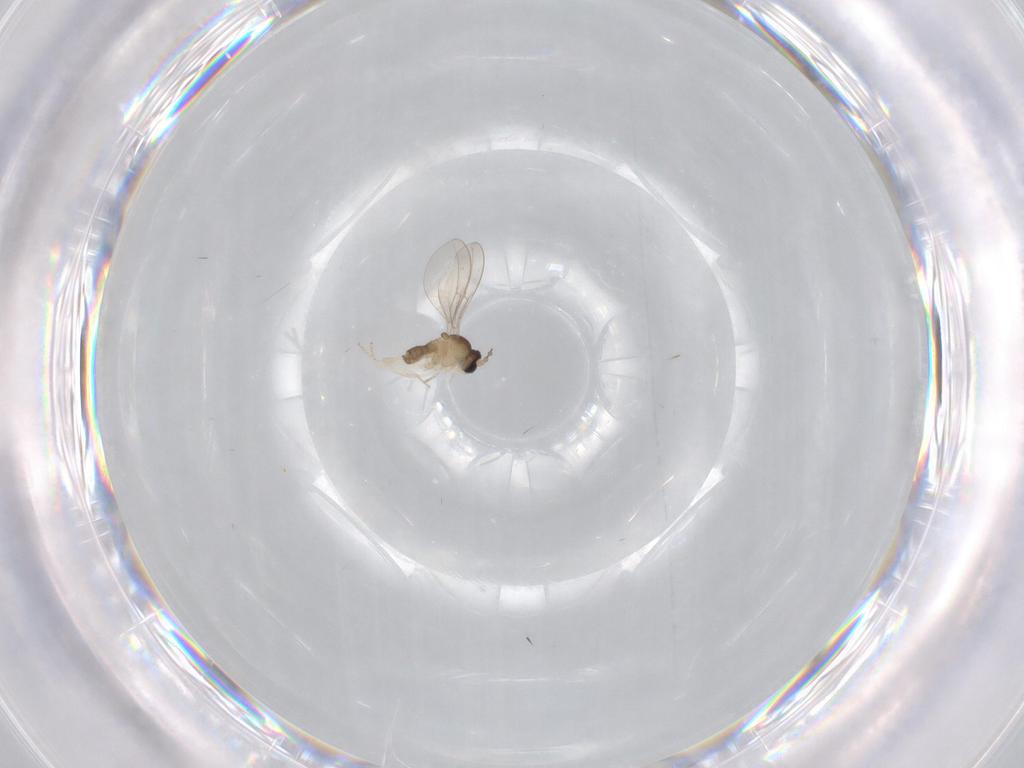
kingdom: Animalia
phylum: Arthropoda
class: Insecta
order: Diptera
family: Cecidomyiidae
